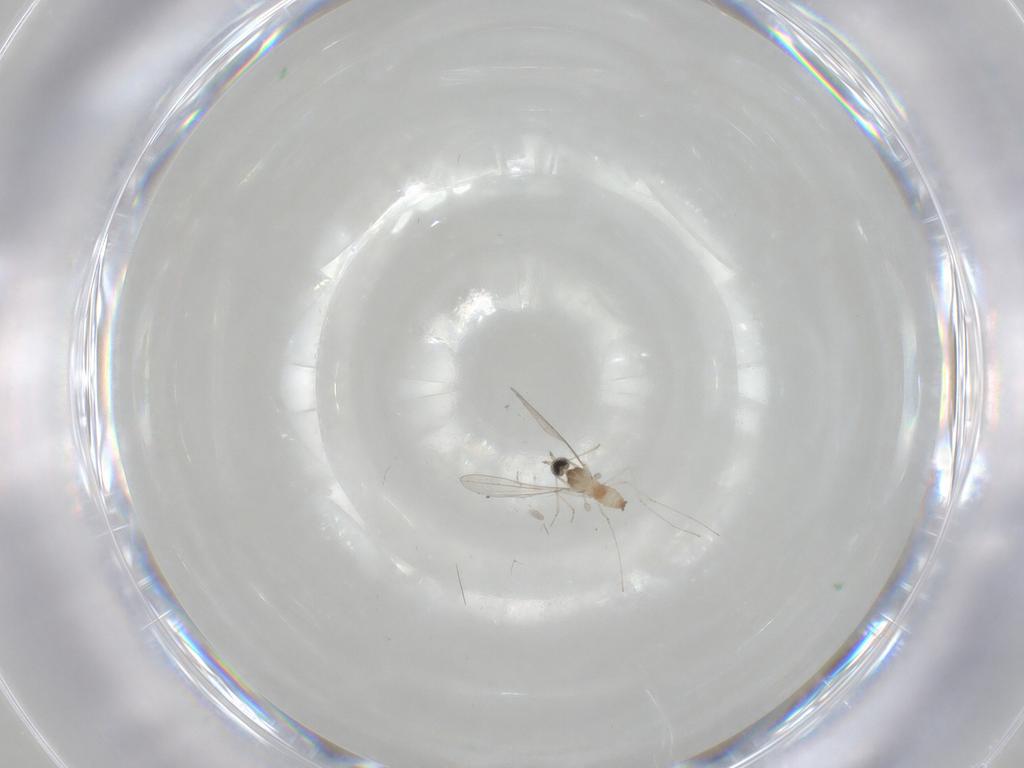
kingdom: Animalia
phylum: Arthropoda
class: Insecta
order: Diptera
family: Cecidomyiidae
